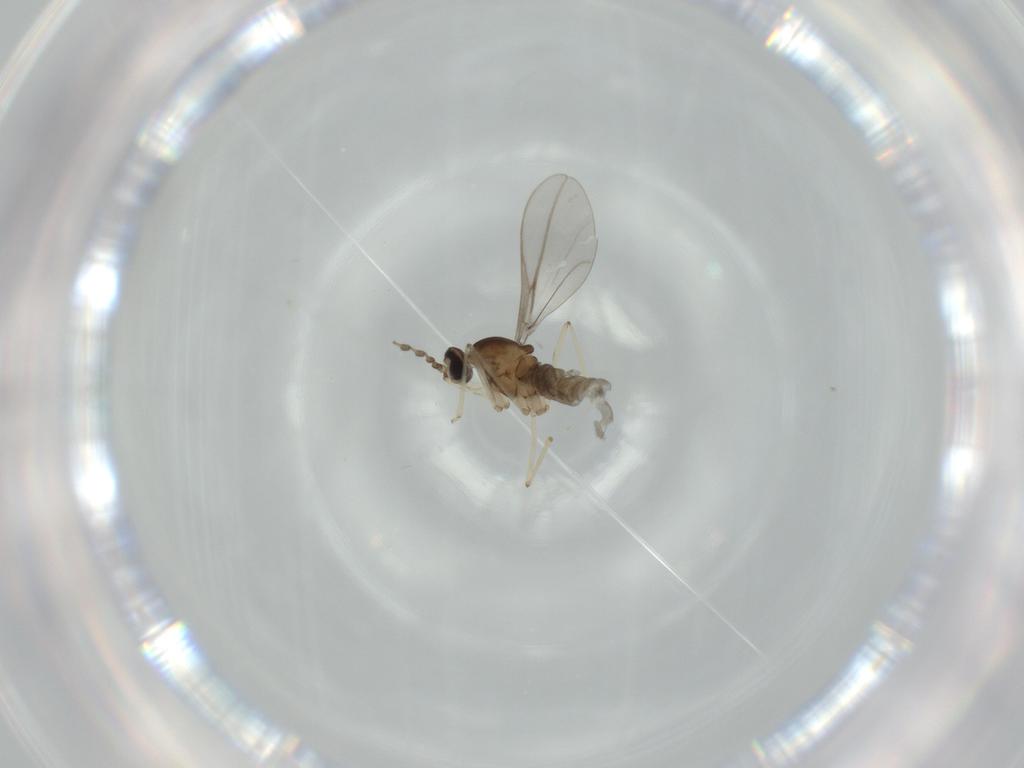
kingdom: Animalia
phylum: Arthropoda
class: Insecta
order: Diptera
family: Cecidomyiidae
